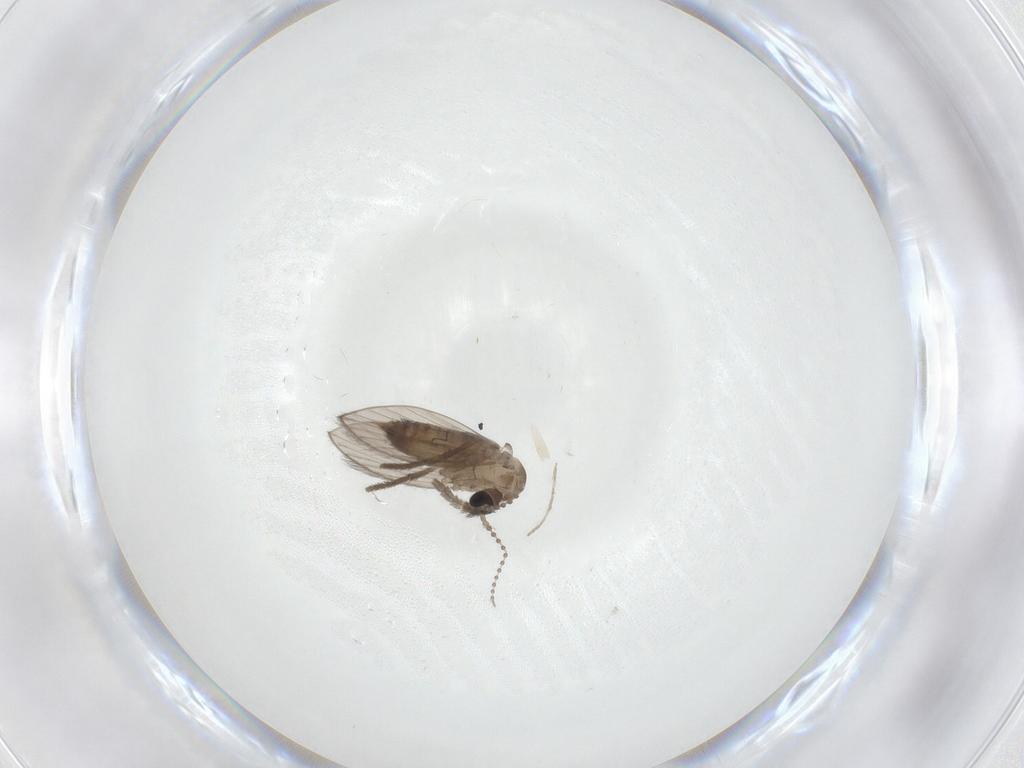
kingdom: Animalia
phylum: Arthropoda
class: Insecta
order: Diptera
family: Psychodidae
